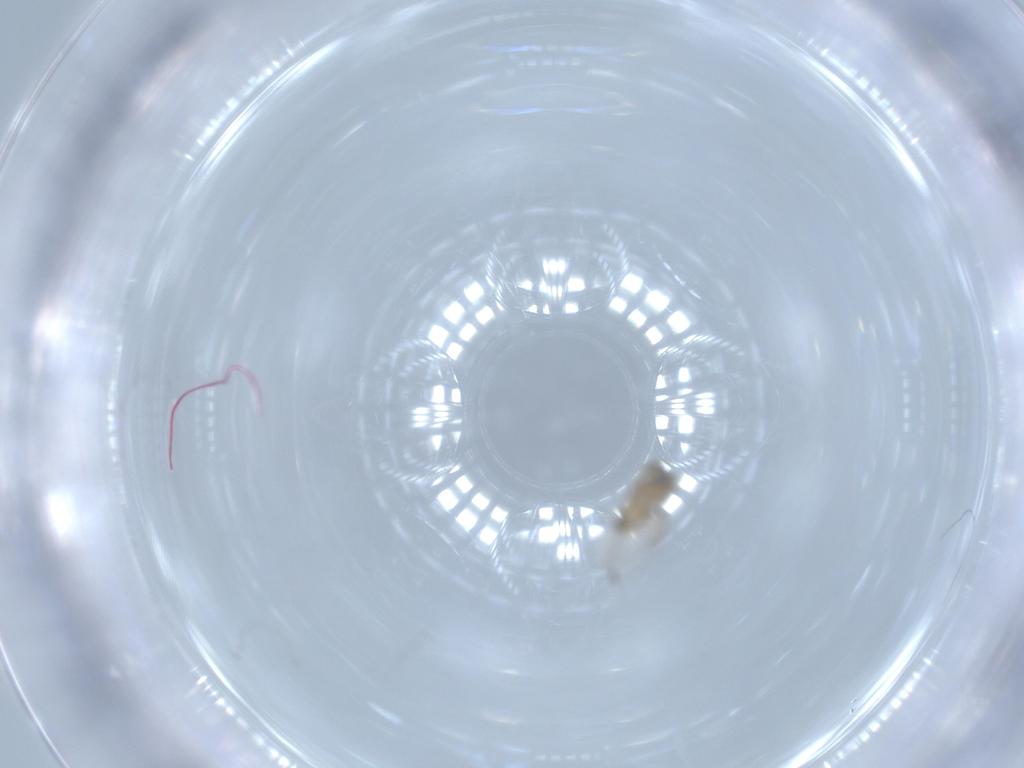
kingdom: Animalia
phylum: Arthropoda
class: Insecta
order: Diptera
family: Cecidomyiidae
